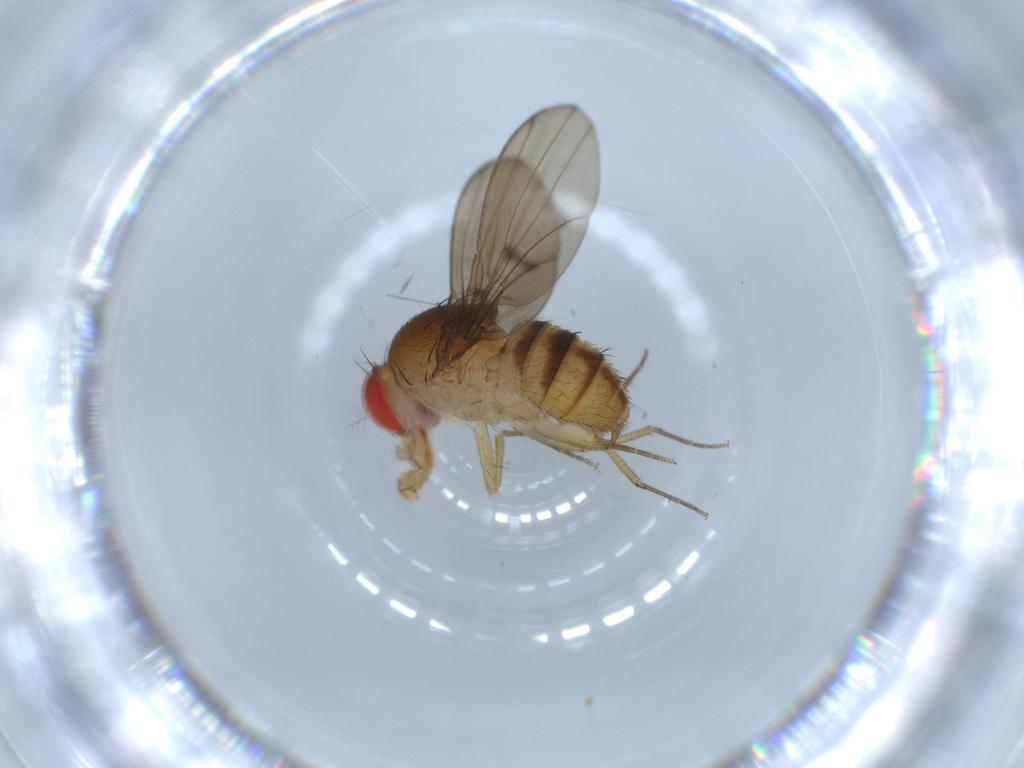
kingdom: Animalia
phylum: Arthropoda
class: Insecta
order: Diptera
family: Drosophilidae
